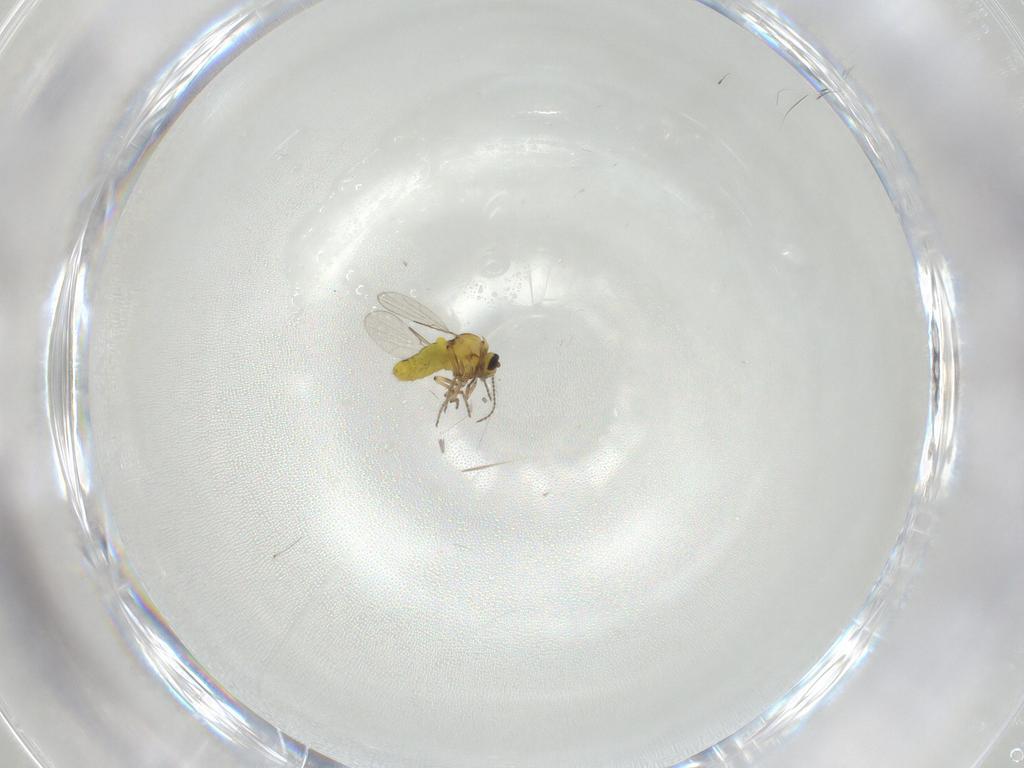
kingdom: Animalia
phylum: Arthropoda
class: Insecta
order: Diptera
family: Ceratopogonidae
